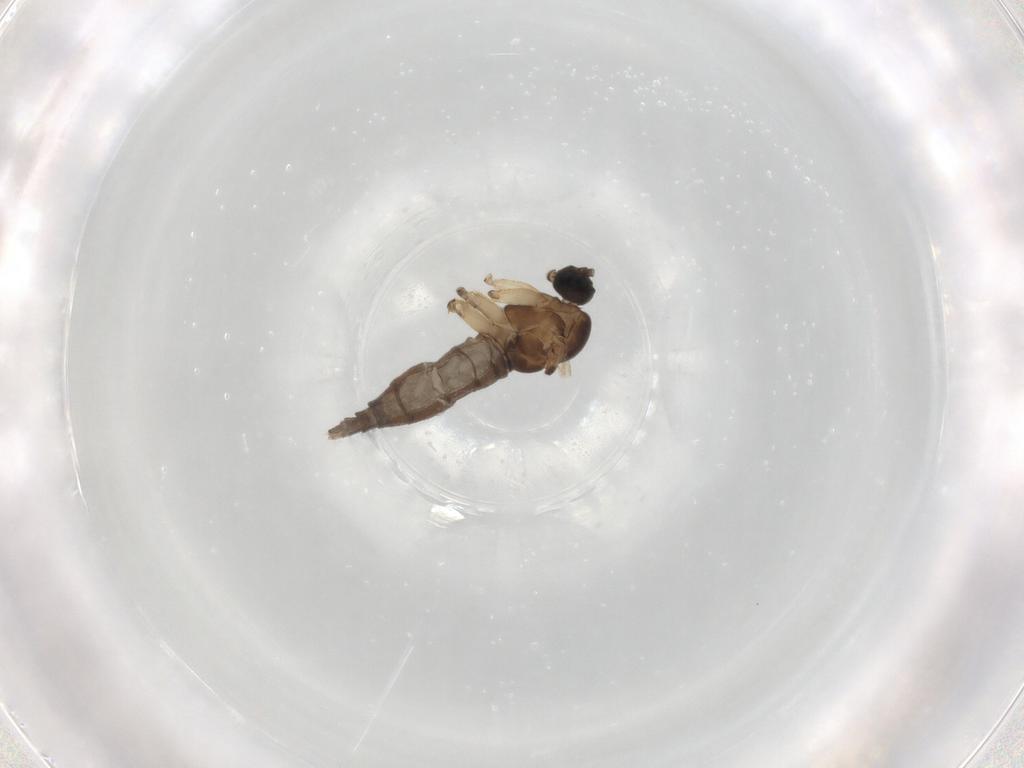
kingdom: Animalia
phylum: Arthropoda
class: Insecta
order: Diptera
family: Sciaridae
